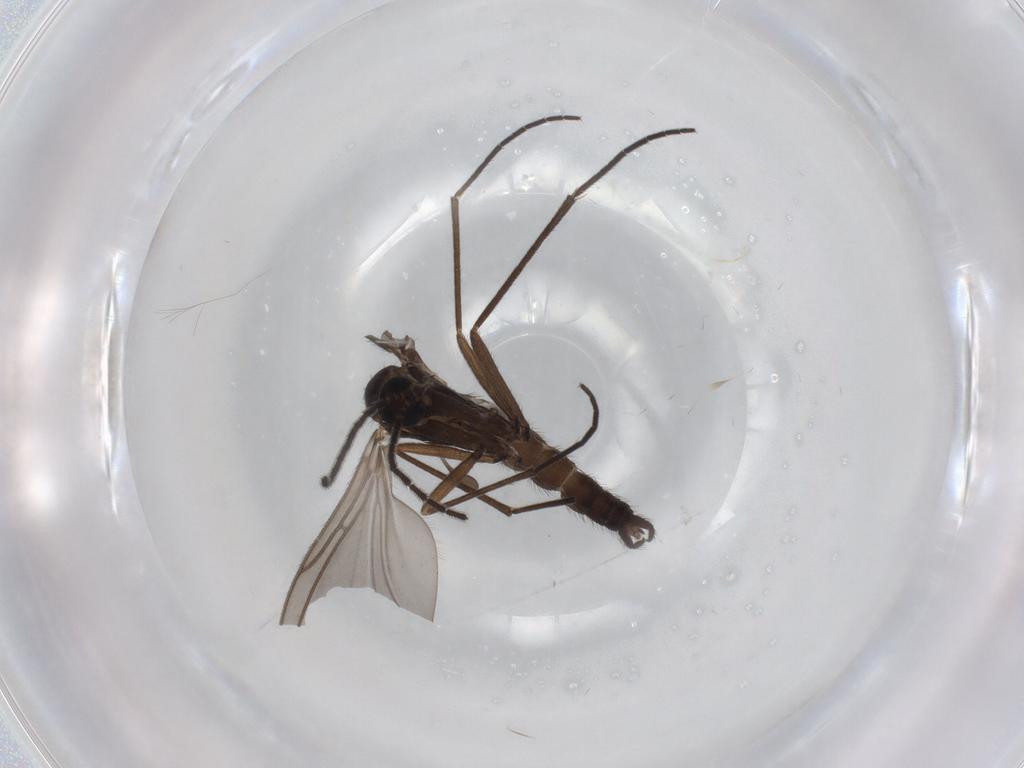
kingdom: Animalia
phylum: Arthropoda
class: Insecta
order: Diptera
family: Sciaridae
